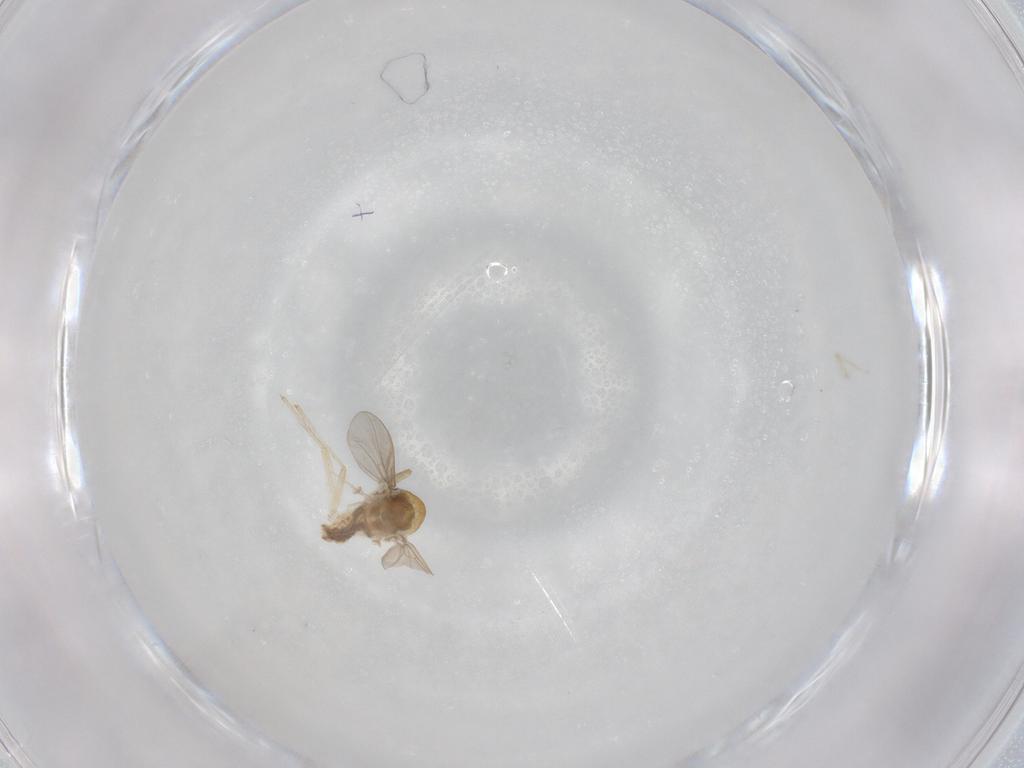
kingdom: Animalia
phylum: Arthropoda
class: Insecta
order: Diptera
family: Chironomidae
